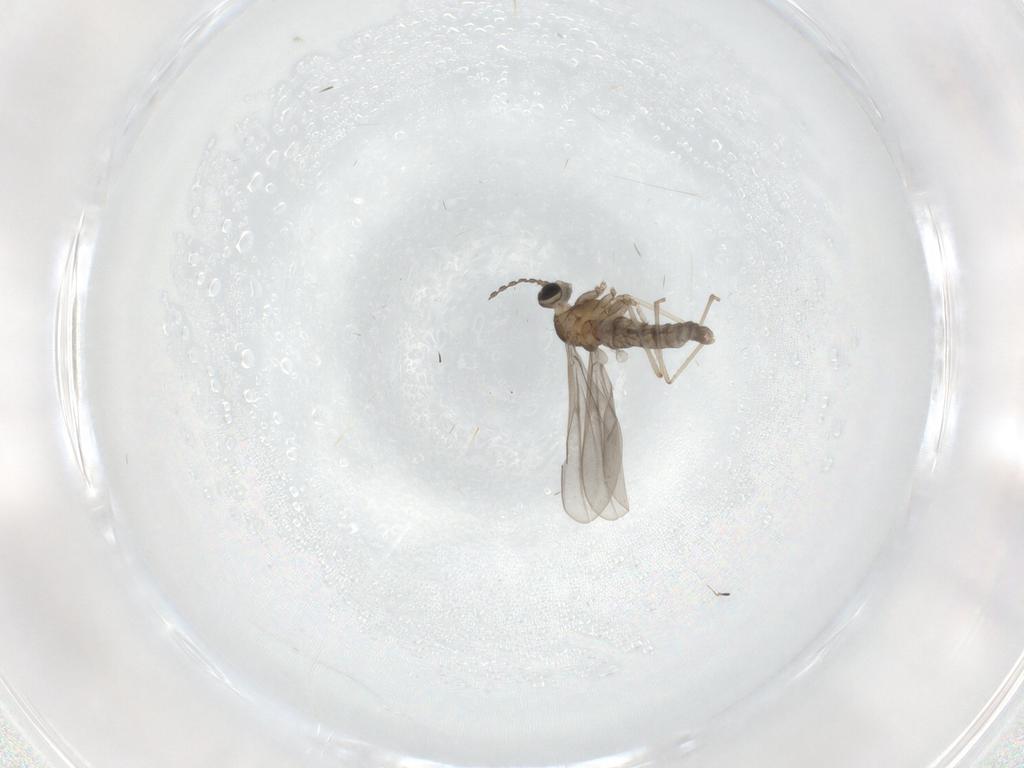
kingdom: Animalia
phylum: Arthropoda
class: Insecta
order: Diptera
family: Cecidomyiidae
